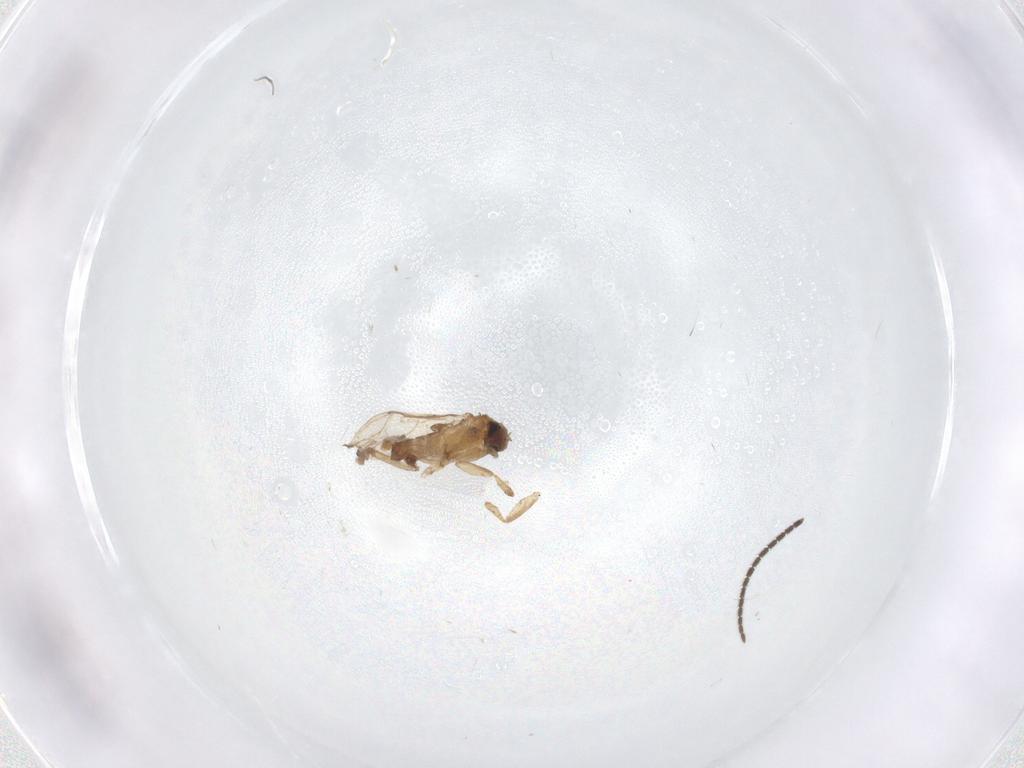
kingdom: Animalia
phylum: Arthropoda
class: Insecta
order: Diptera
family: Sciaridae
